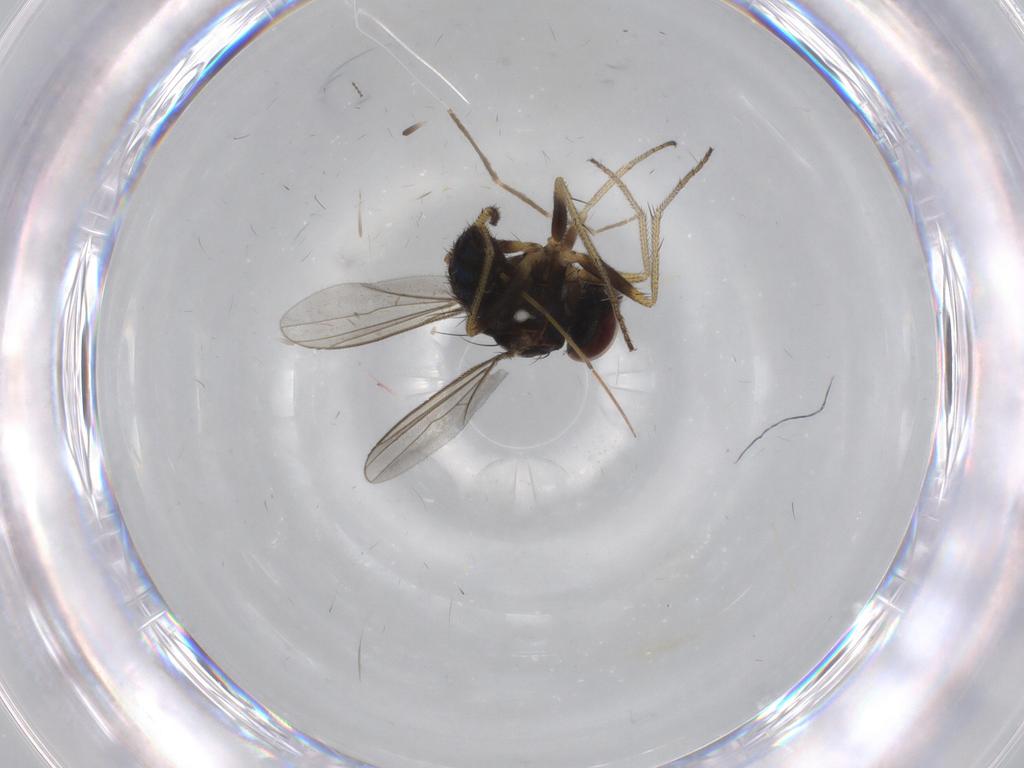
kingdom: Animalia
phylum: Arthropoda
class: Insecta
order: Diptera
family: Chironomidae
